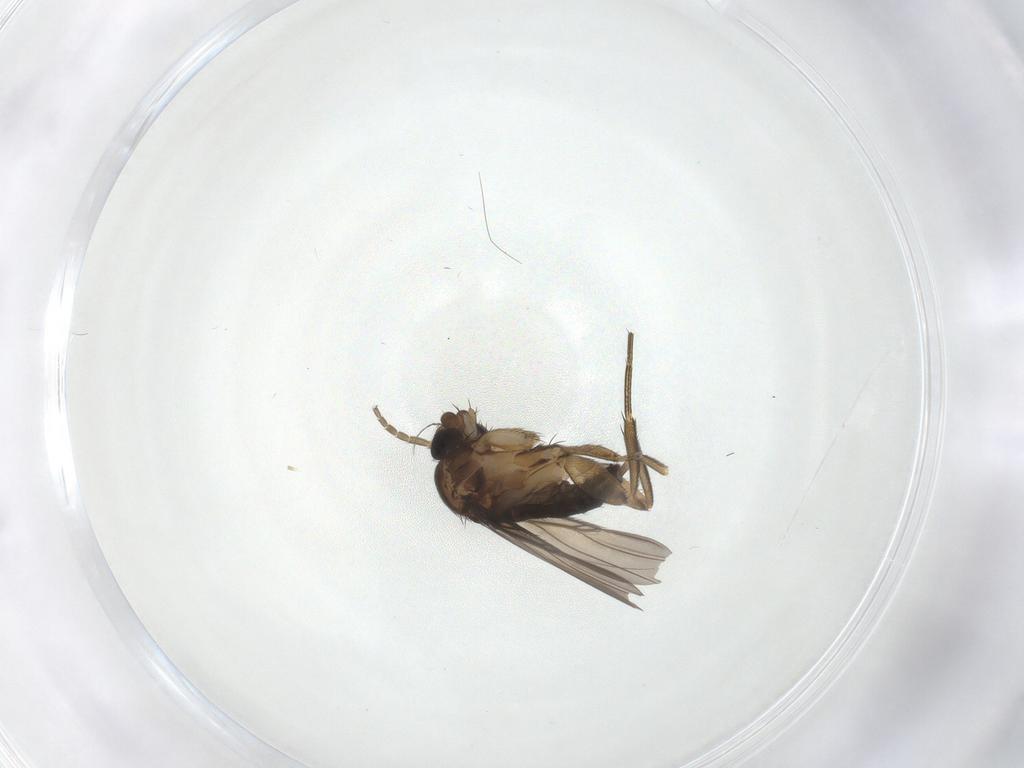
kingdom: Animalia
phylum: Arthropoda
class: Insecta
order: Diptera
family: Phoridae
